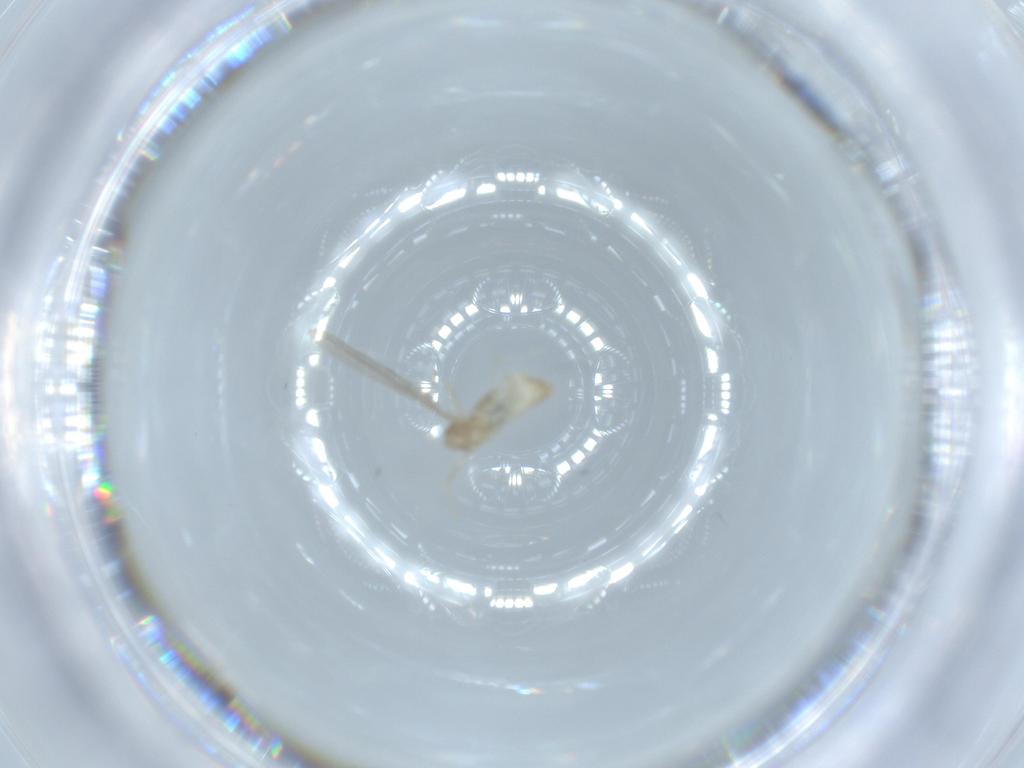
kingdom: Animalia
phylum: Arthropoda
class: Insecta
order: Diptera
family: Cecidomyiidae
